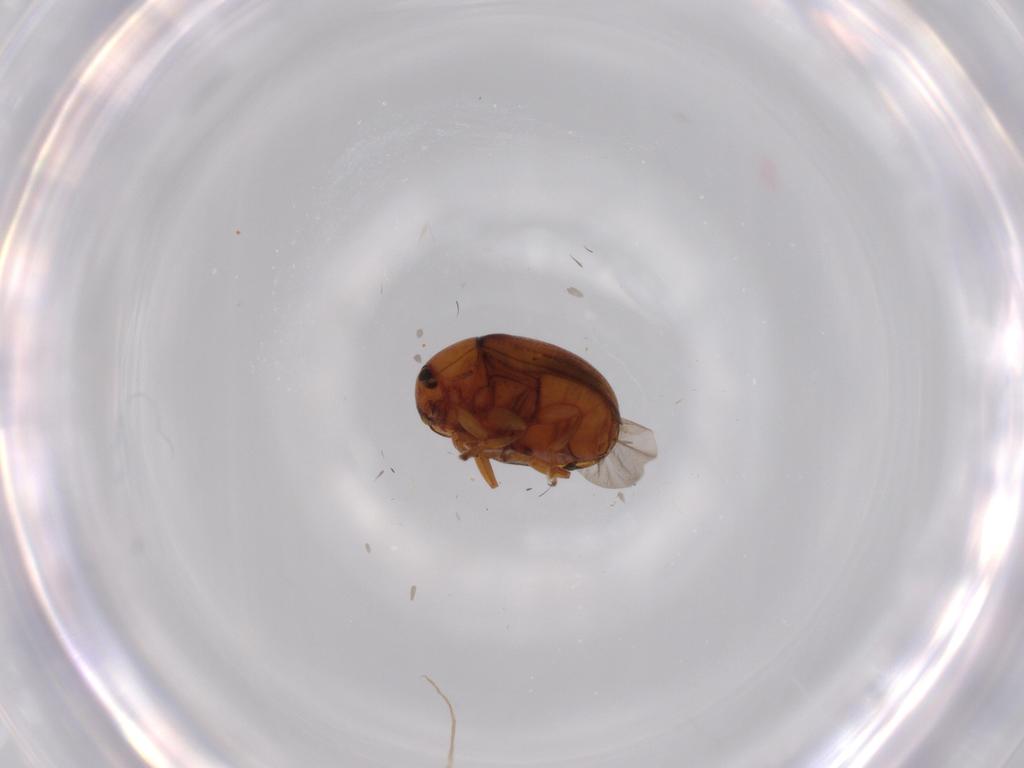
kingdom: Animalia
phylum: Arthropoda
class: Insecta
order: Coleoptera
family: Chrysomelidae
